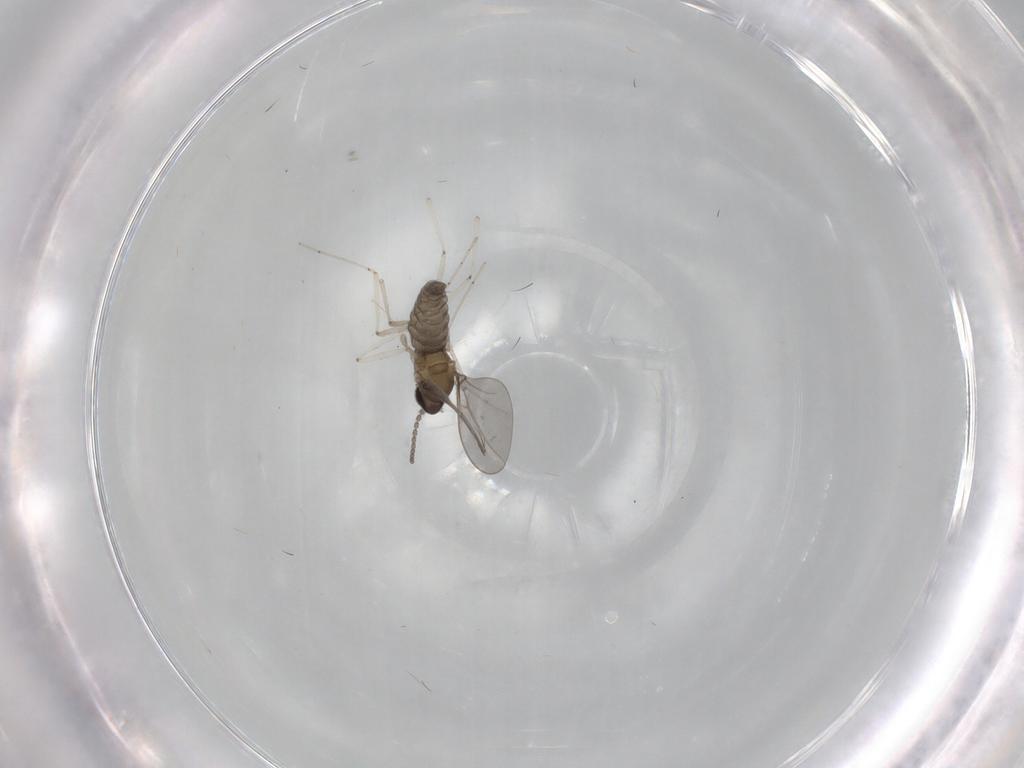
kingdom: Animalia
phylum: Arthropoda
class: Insecta
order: Diptera
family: Cecidomyiidae
